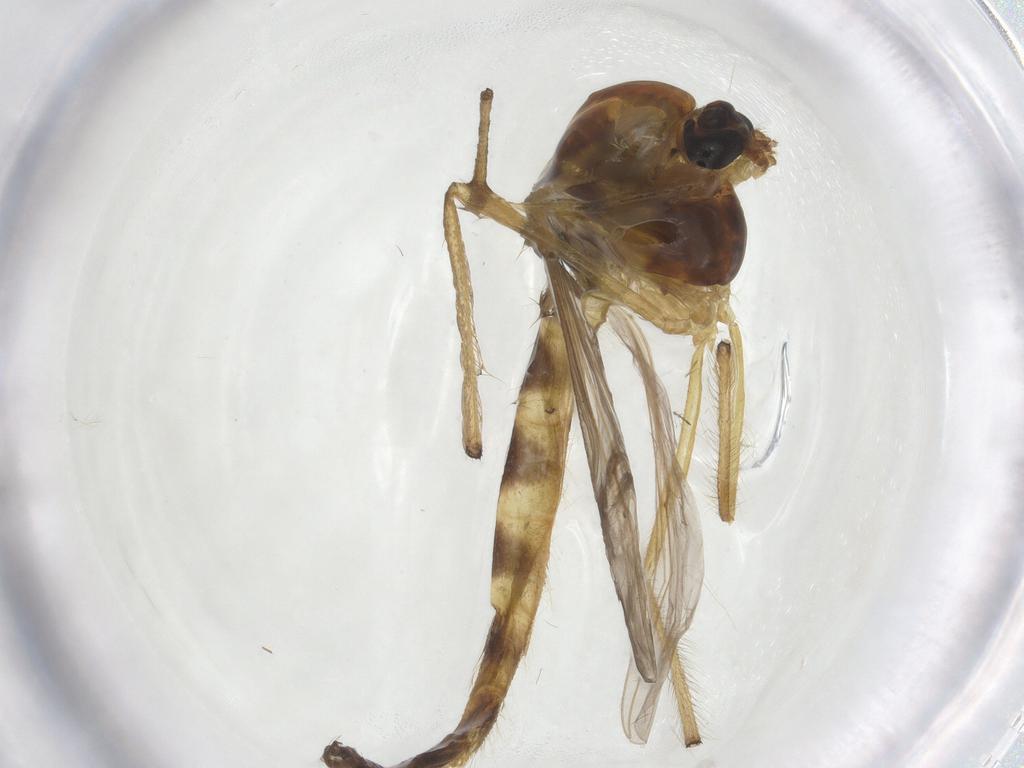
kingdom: Animalia
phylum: Arthropoda
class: Insecta
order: Diptera
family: Chironomidae
